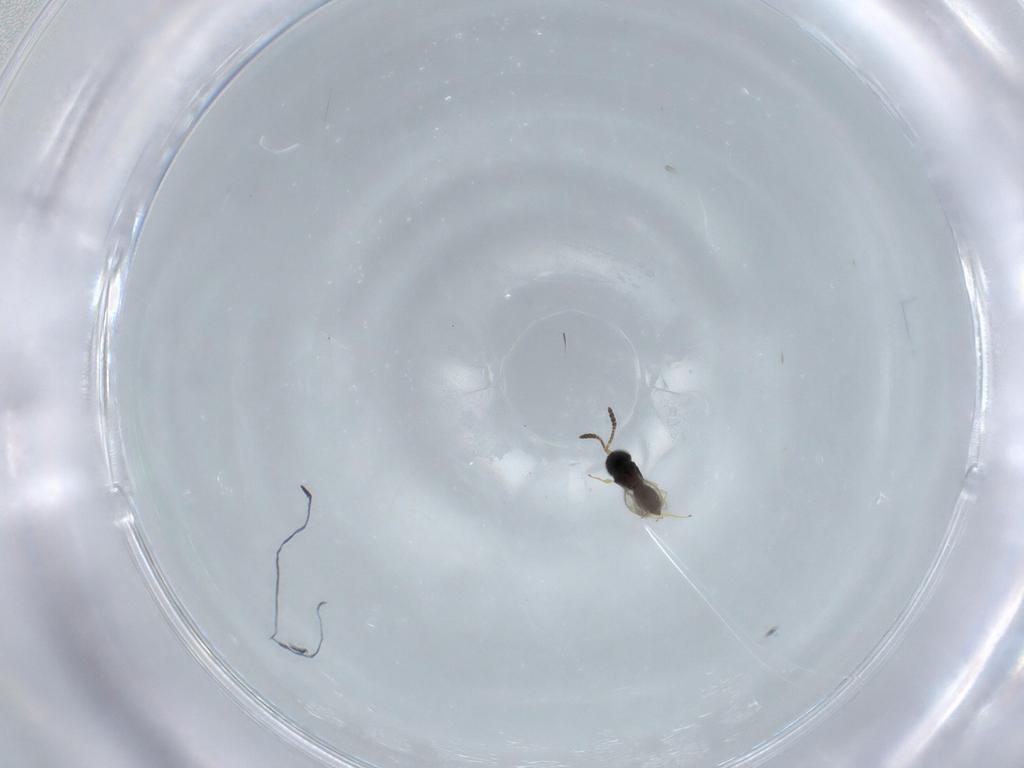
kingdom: Animalia
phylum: Arthropoda
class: Insecta
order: Hymenoptera
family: Scelionidae
